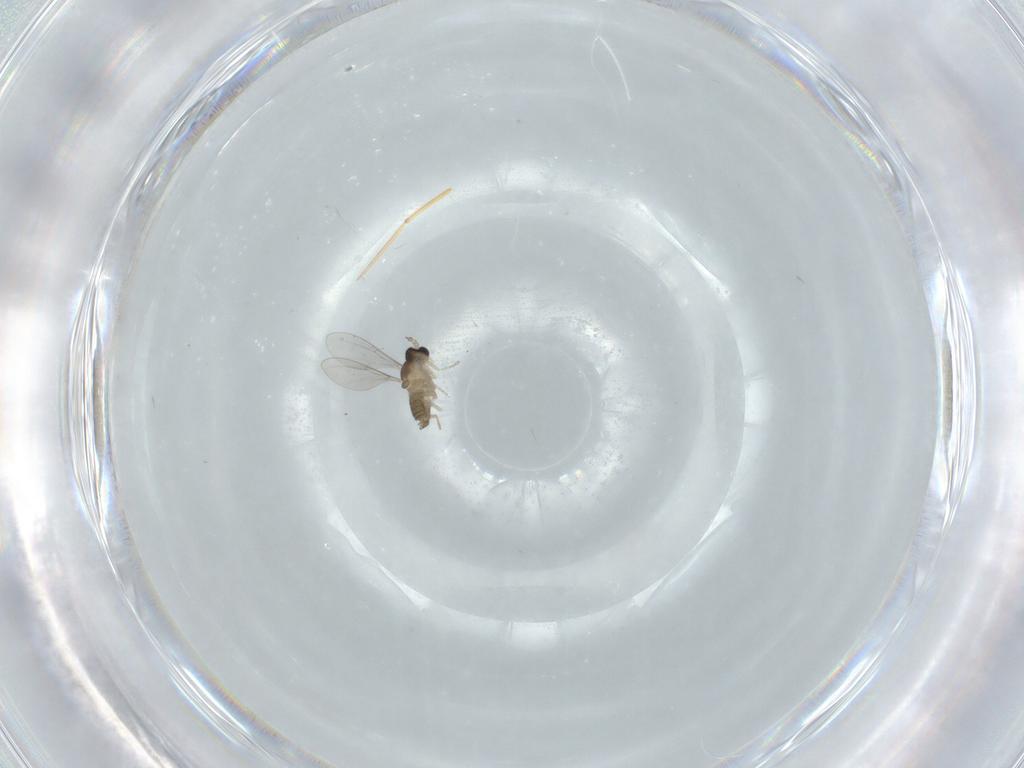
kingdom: Animalia
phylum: Arthropoda
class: Insecta
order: Diptera
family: Cecidomyiidae
